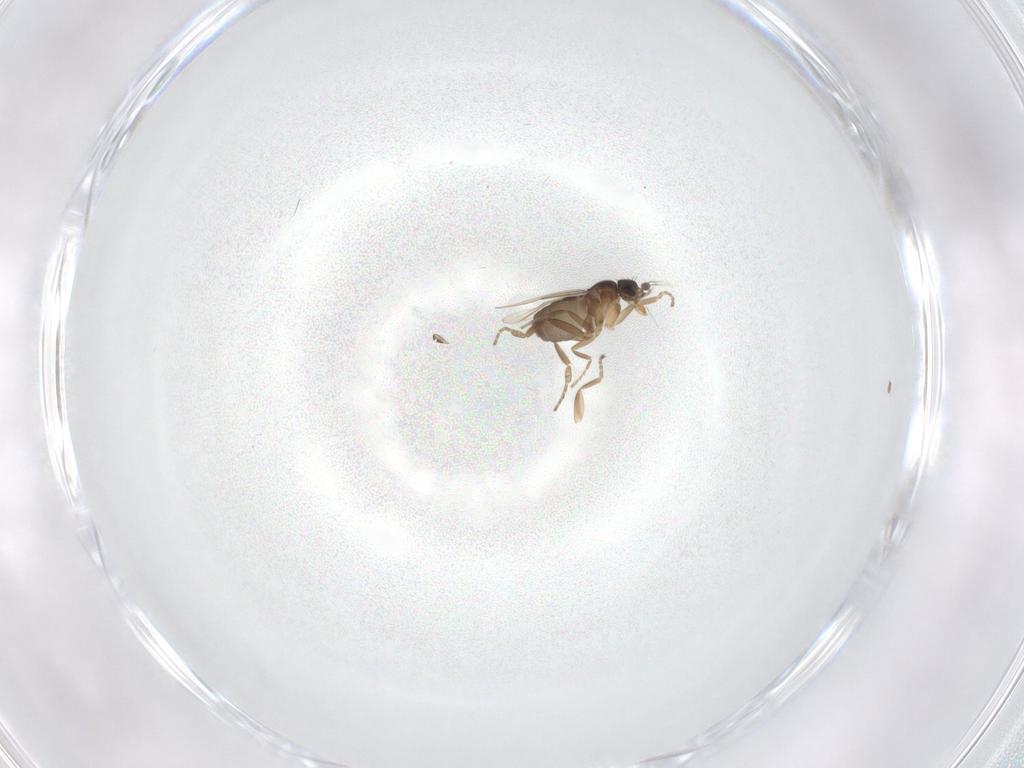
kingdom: Animalia
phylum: Arthropoda
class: Insecta
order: Diptera
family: Phoridae
